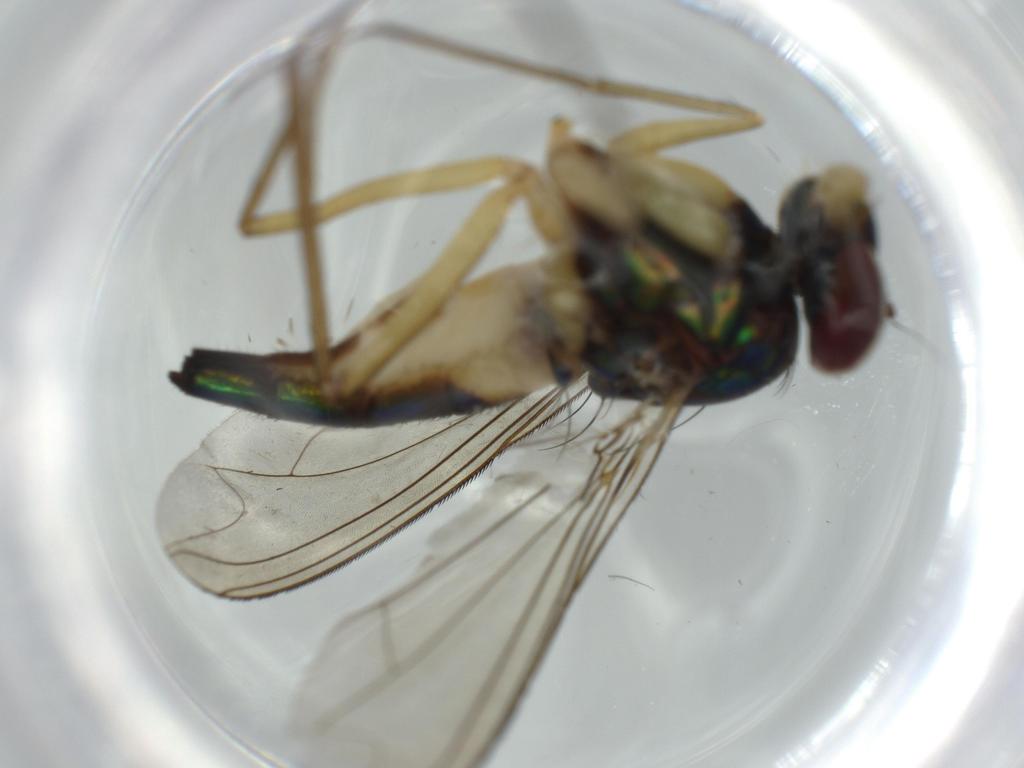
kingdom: Animalia
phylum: Arthropoda
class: Insecta
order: Diptera
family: Dolichopodidae
